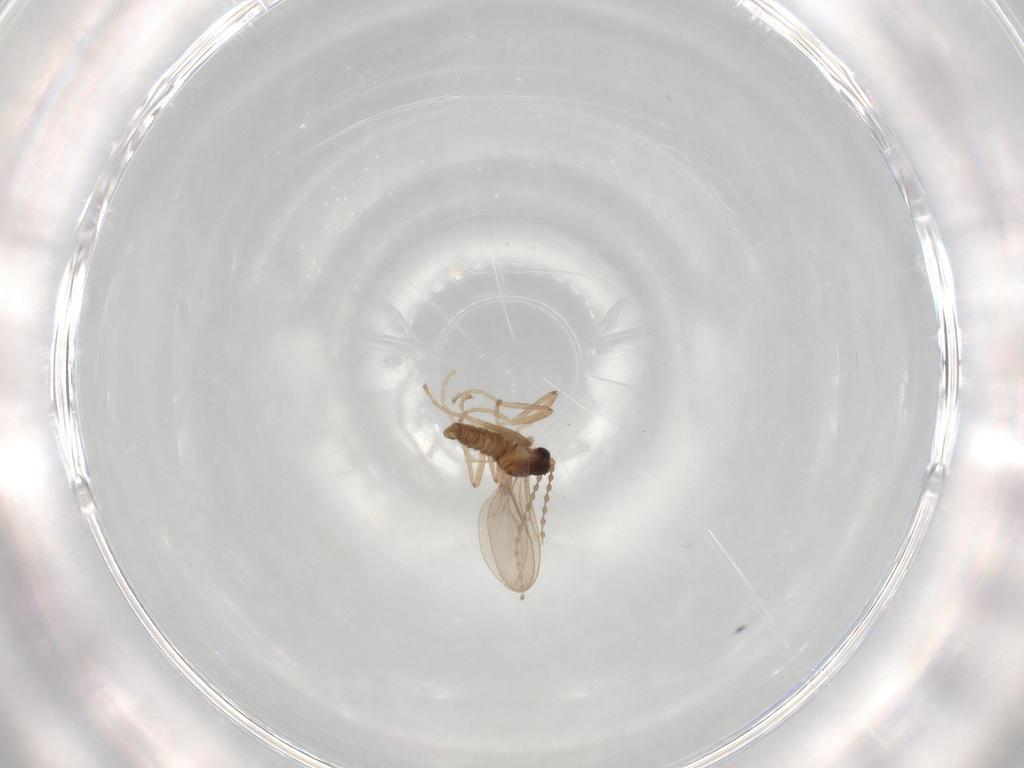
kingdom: Animalia
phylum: Arthropoda
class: Insecta
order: Diptera
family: Cecidomyiidae
